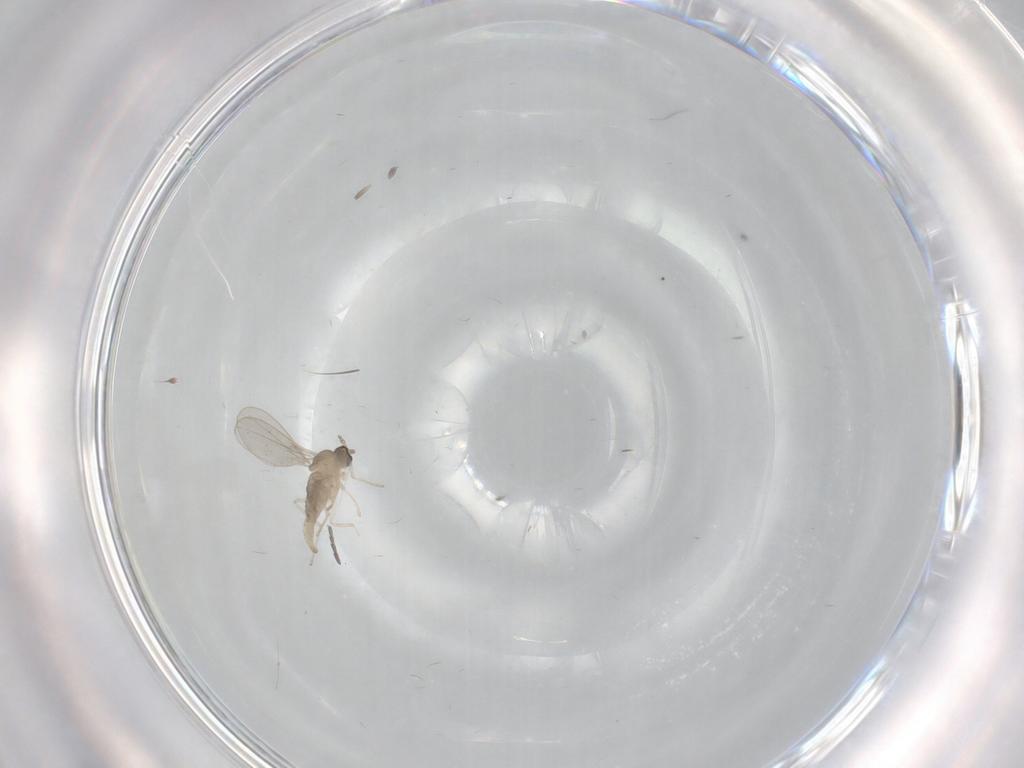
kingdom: Animalia
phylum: Arthropoda
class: Insecta
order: Diptera
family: Cecidomyiidae
